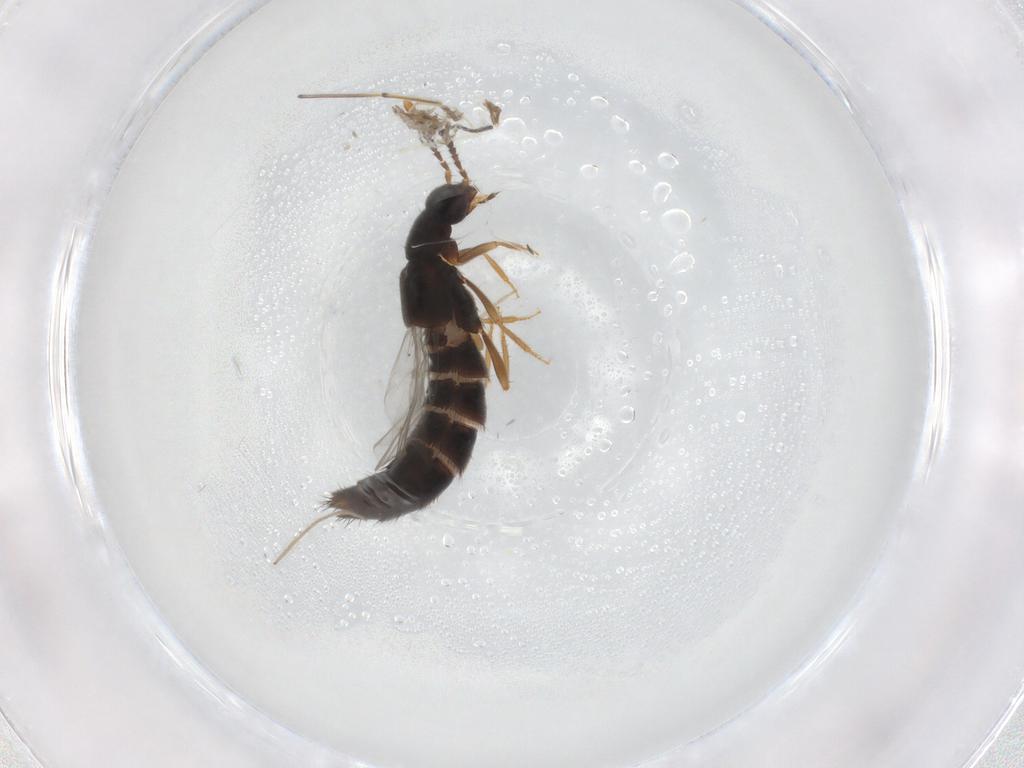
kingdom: Animalia
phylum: Arthropoda
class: Insecta
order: Coleoptera
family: Staphylinidae
